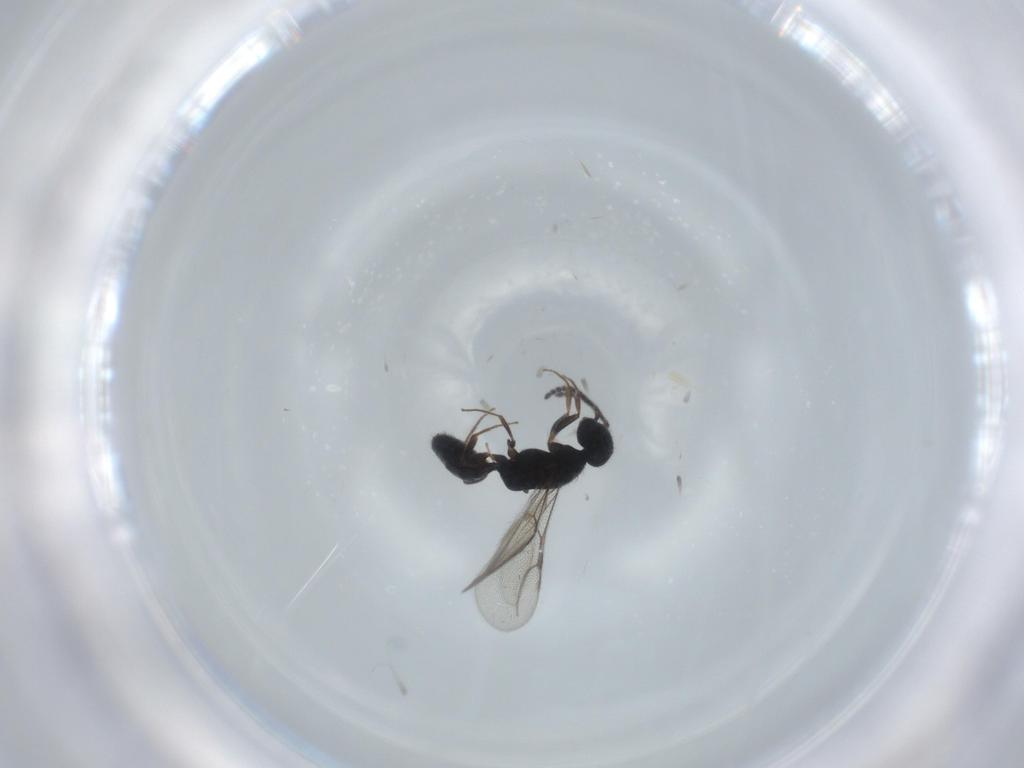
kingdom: Animalia
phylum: Arthropoda
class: Insecta
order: Hymenoptera
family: Bethylidae
